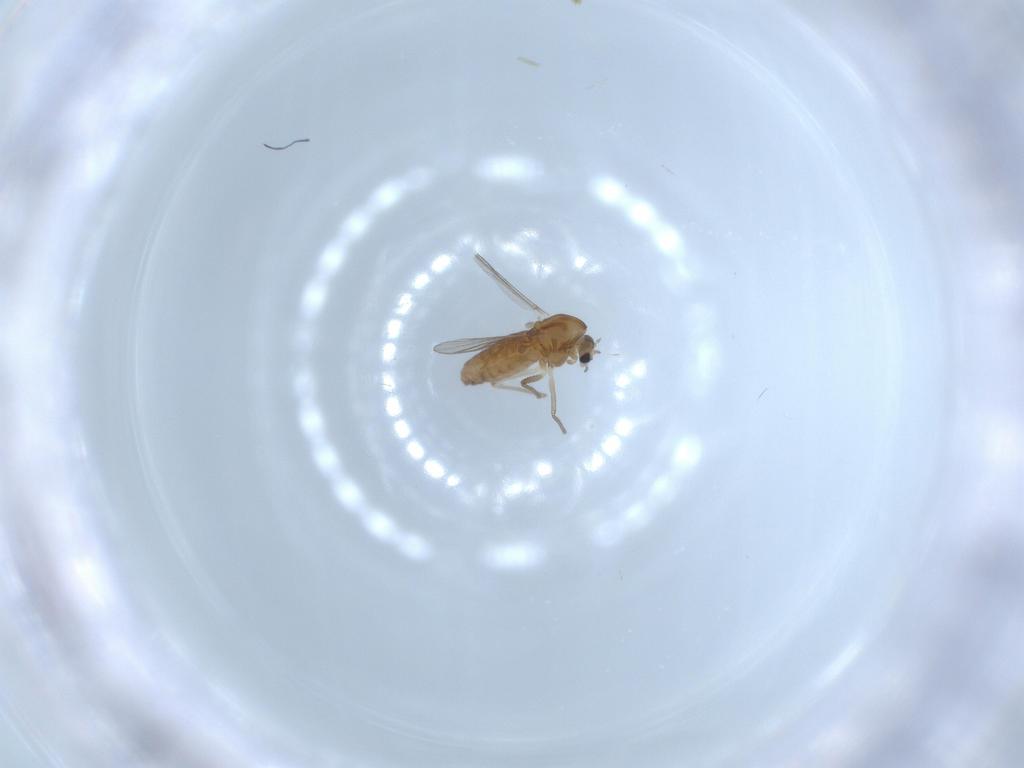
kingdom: Animalia
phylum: Arthropoda
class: Insecta
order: Diptera
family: Chironomidae
